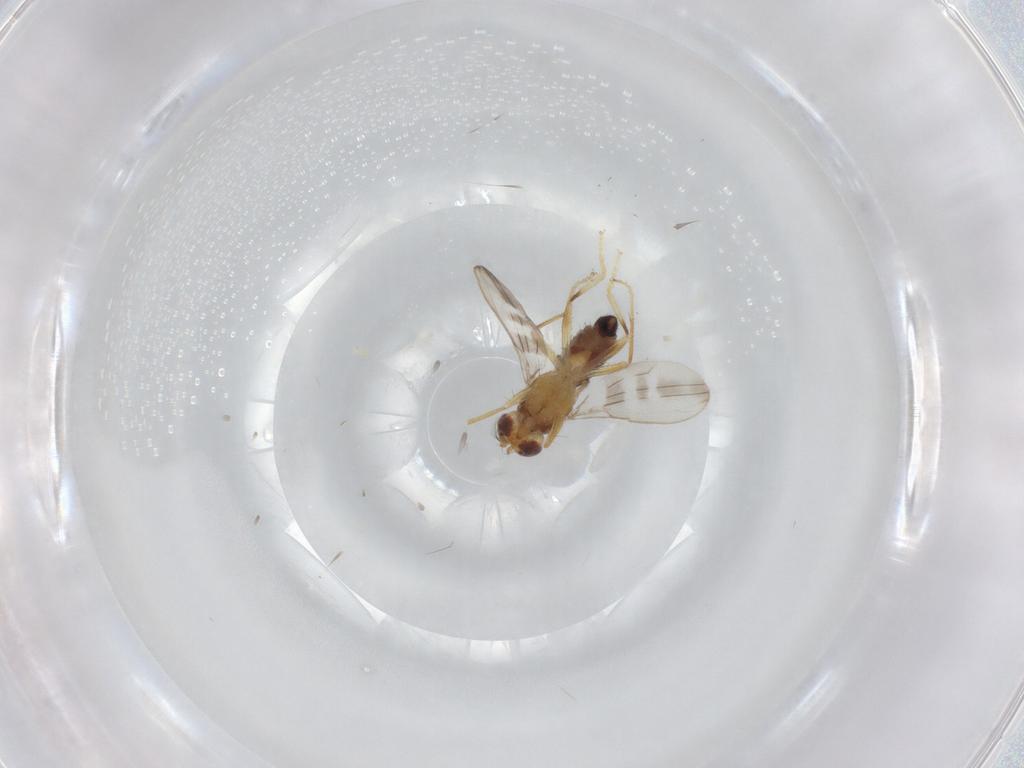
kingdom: Animalia
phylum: Arthropoda
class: Insecta
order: Diptera
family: Periscelididae
